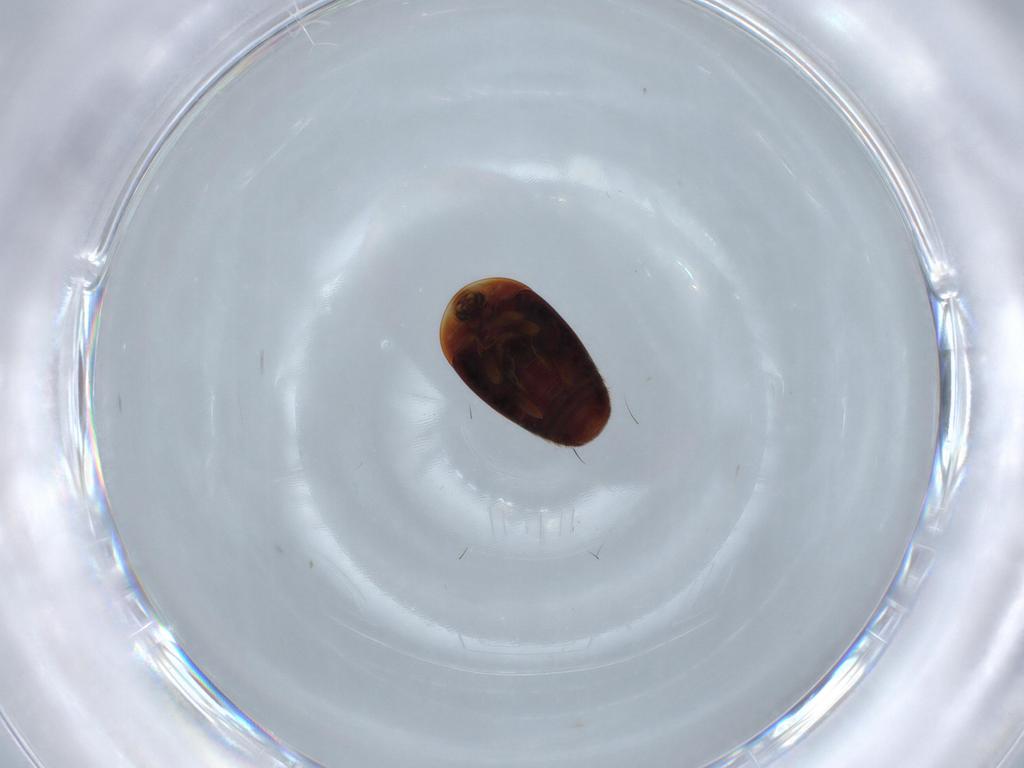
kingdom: Animalia
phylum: Arthropoda
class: Insecta
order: Coleoptera
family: Corylophidae
